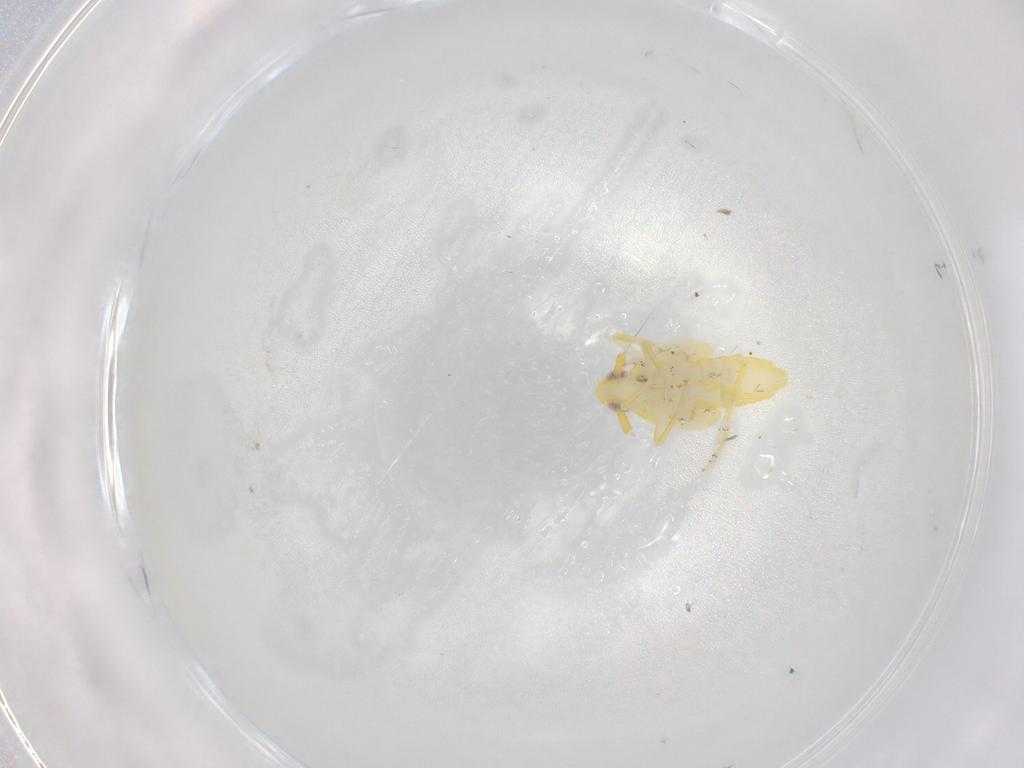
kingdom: Animalia
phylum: Arthropoda
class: Insecta
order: Hemiptera
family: Delphacidae
